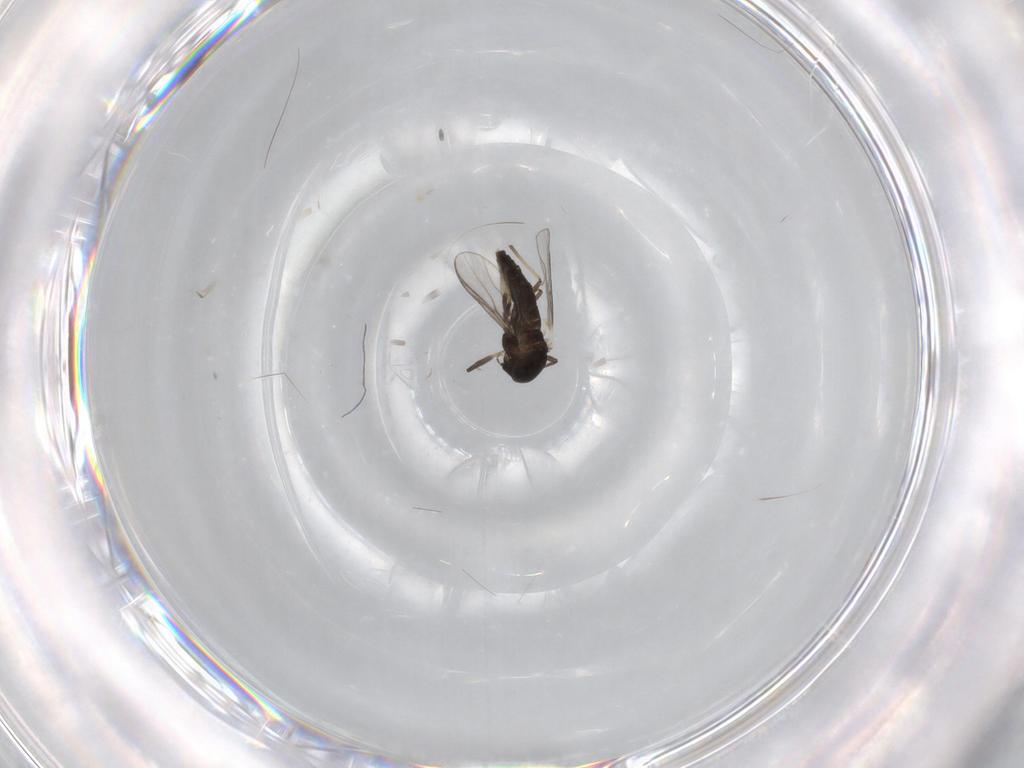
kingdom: Animalia
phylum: Arthropoda
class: Insecta
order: Diptera
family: Chironomidae
